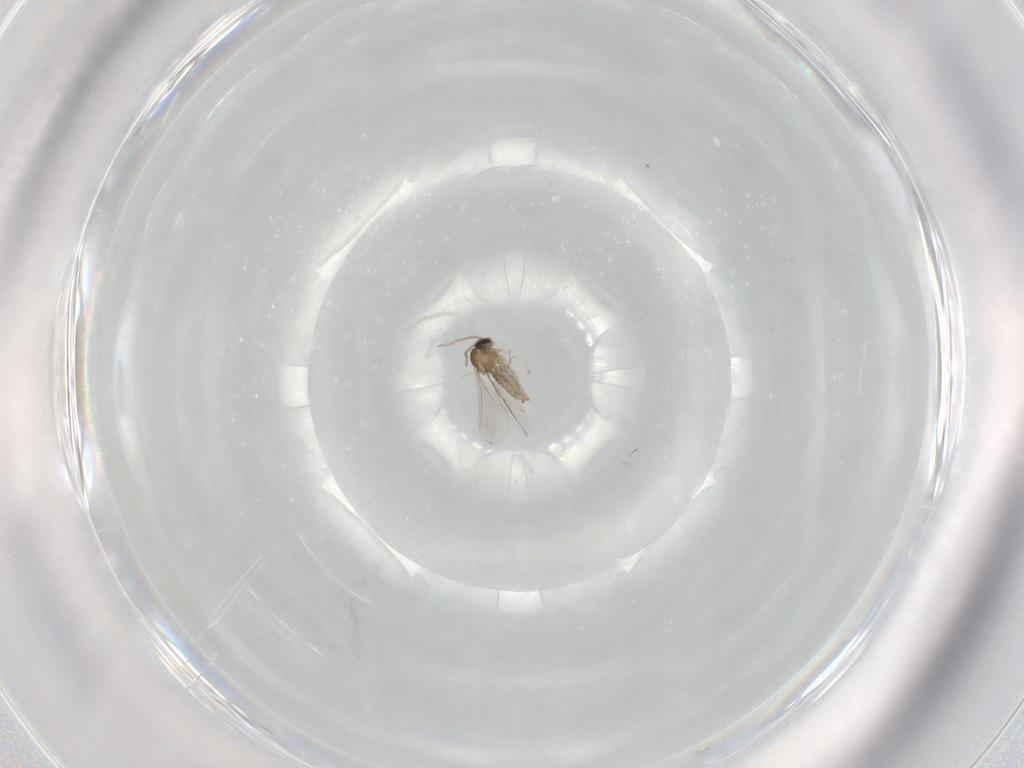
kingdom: Animalia
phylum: Arthropoda
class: Insecta
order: Diptera
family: Cecidomyiidae
